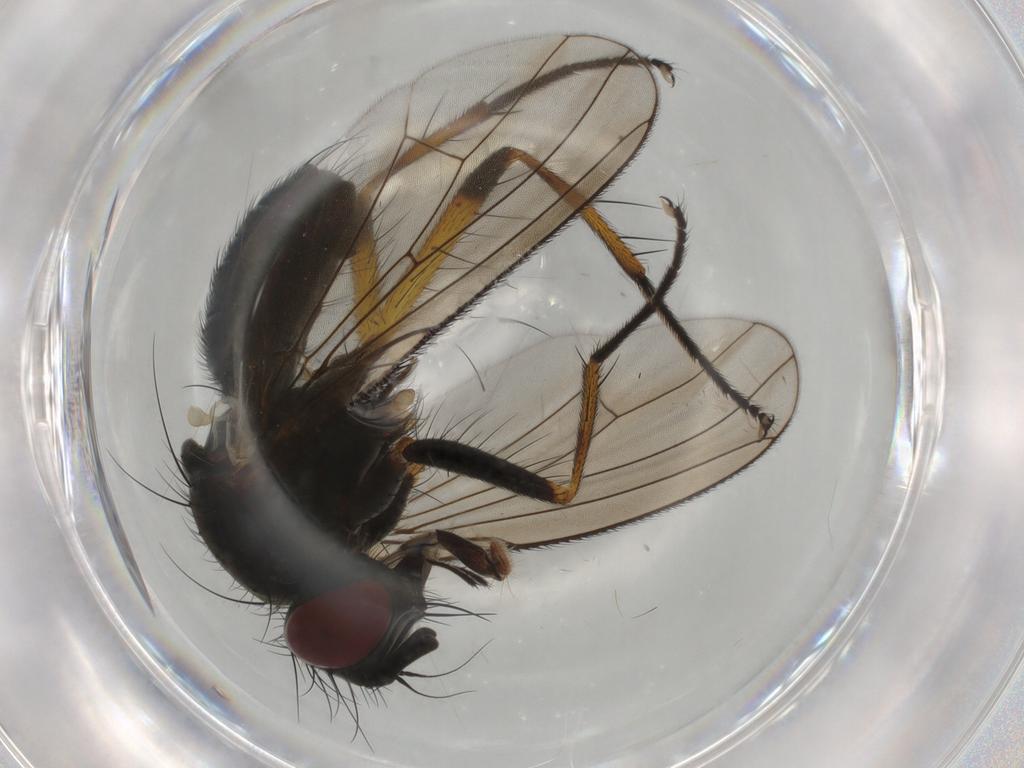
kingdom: Animalia
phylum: Arthropoda
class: Insecta
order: Diptera
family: Muscidae
